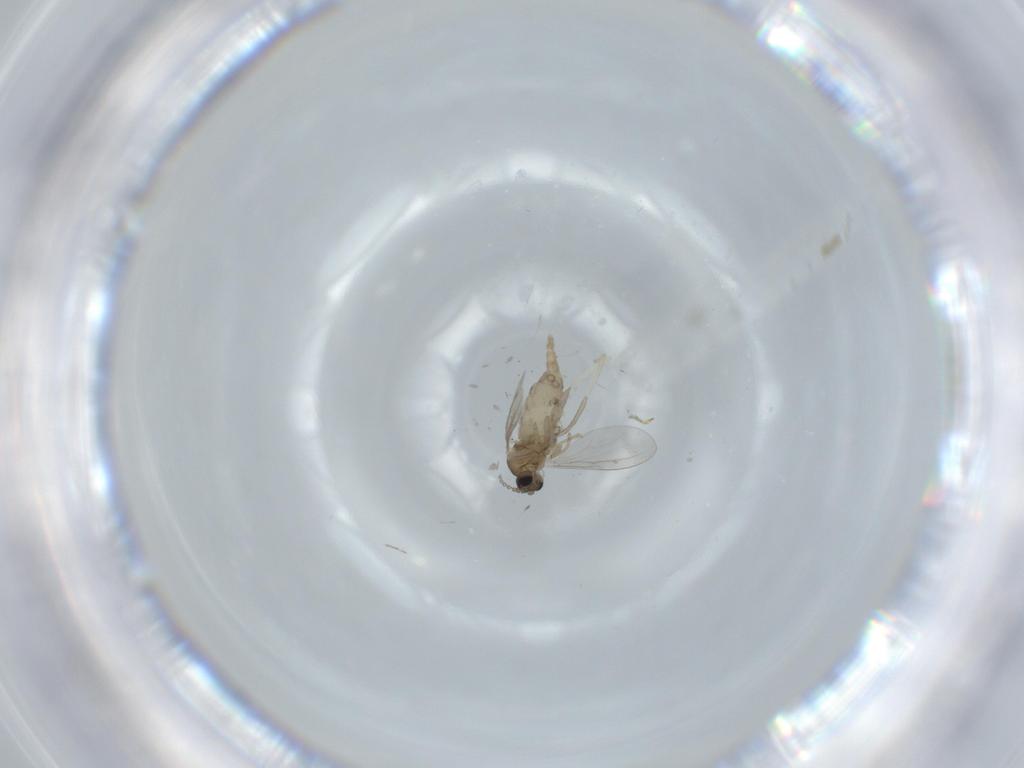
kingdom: Animalia
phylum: Arthropoda
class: Insecta
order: Diptera
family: Cecidomyiidae
